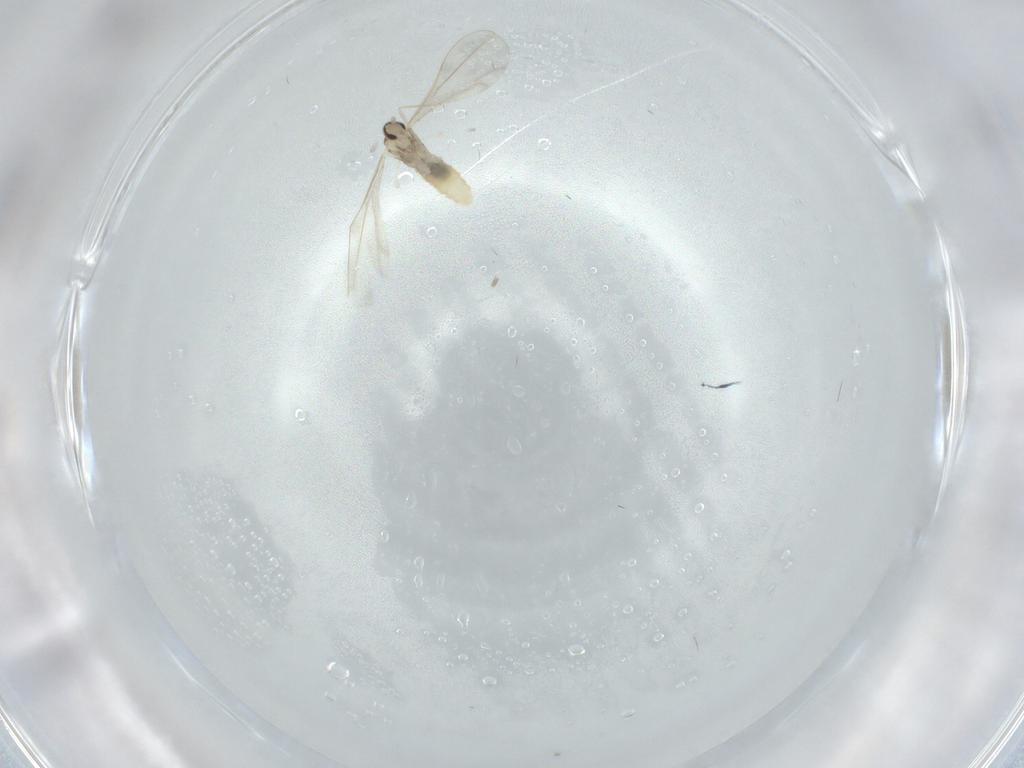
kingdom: Animalia
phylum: Arthropoda
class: Insecta
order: Diptera
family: Cecidomyiidae
